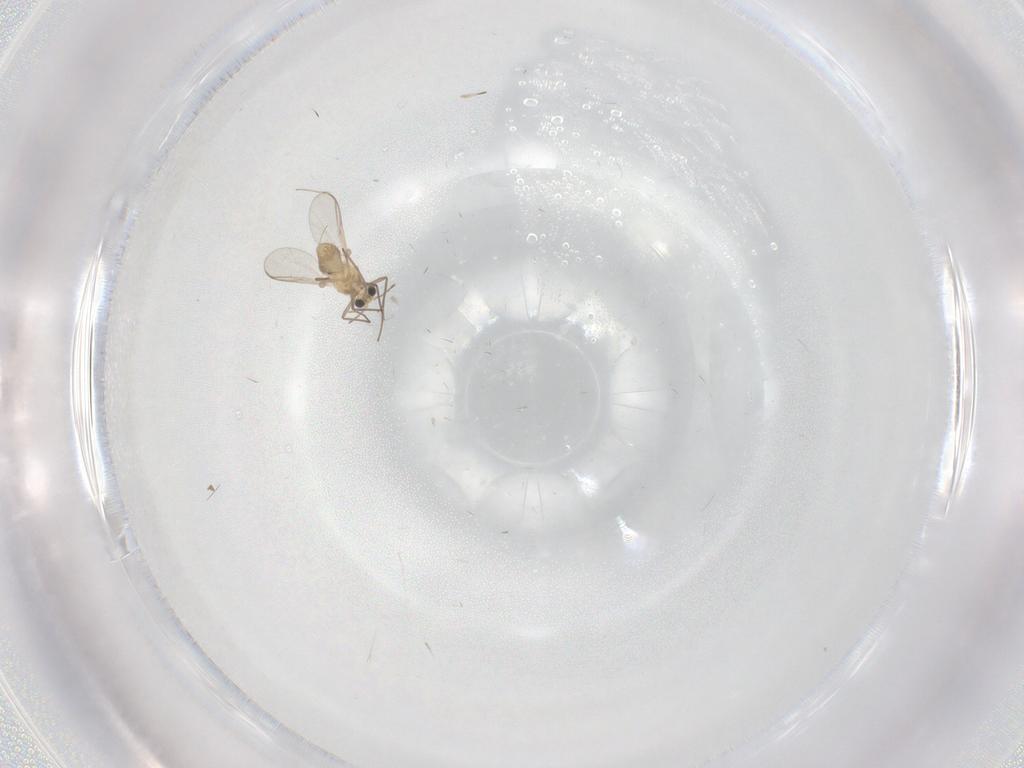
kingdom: Animalia
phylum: Arthropoda
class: Insecta
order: Diptera
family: Chironomidae
